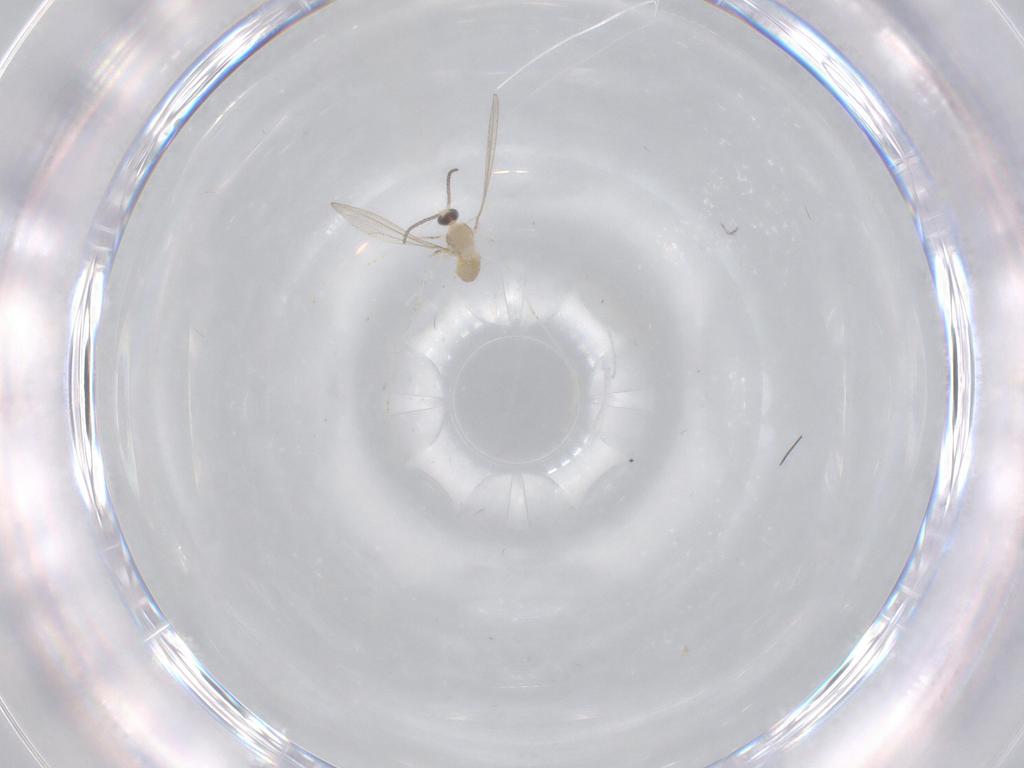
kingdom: Animalia
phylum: Arthropoda
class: Insecta
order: Diptera
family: Cecidomyiidae
